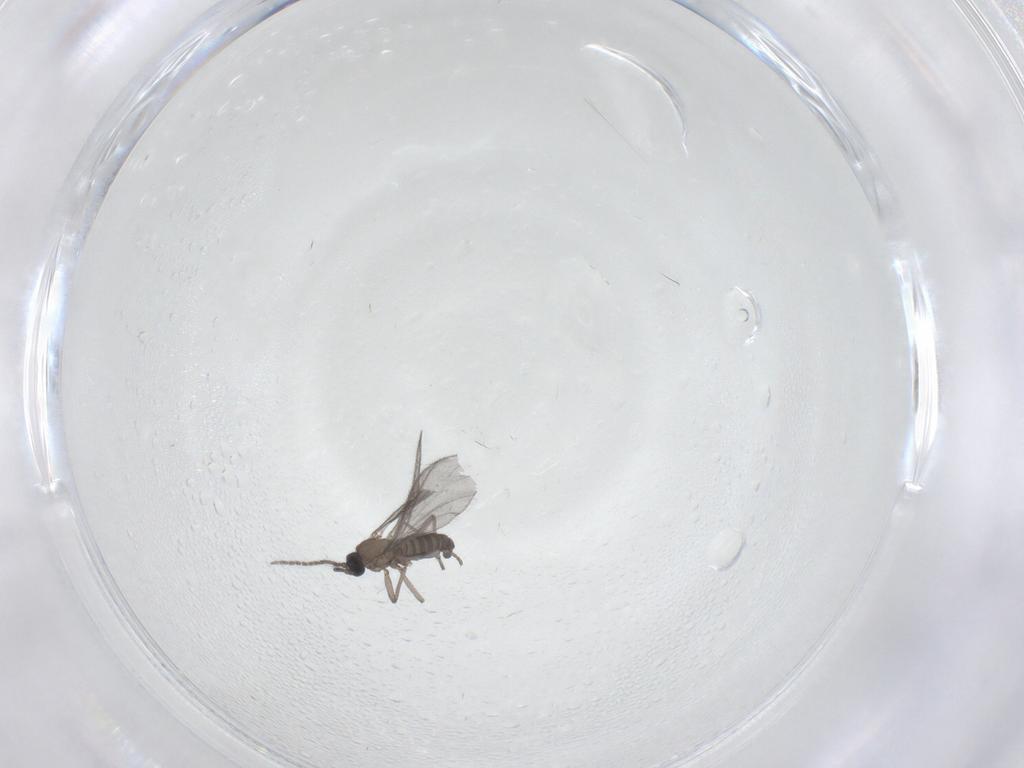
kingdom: Animalia
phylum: Arthropoda
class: Insecta
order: Diptera
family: Sciaridae
